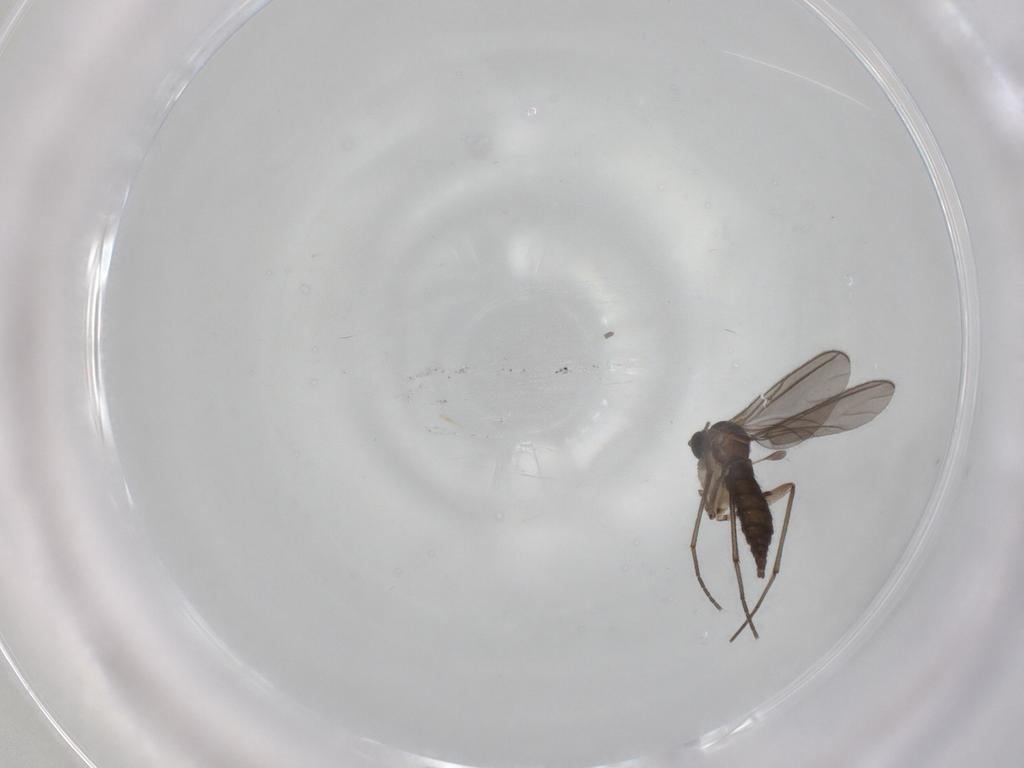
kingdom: Animalia
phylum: Arthropoda
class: Insecta
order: Diptera
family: Sciaridae
